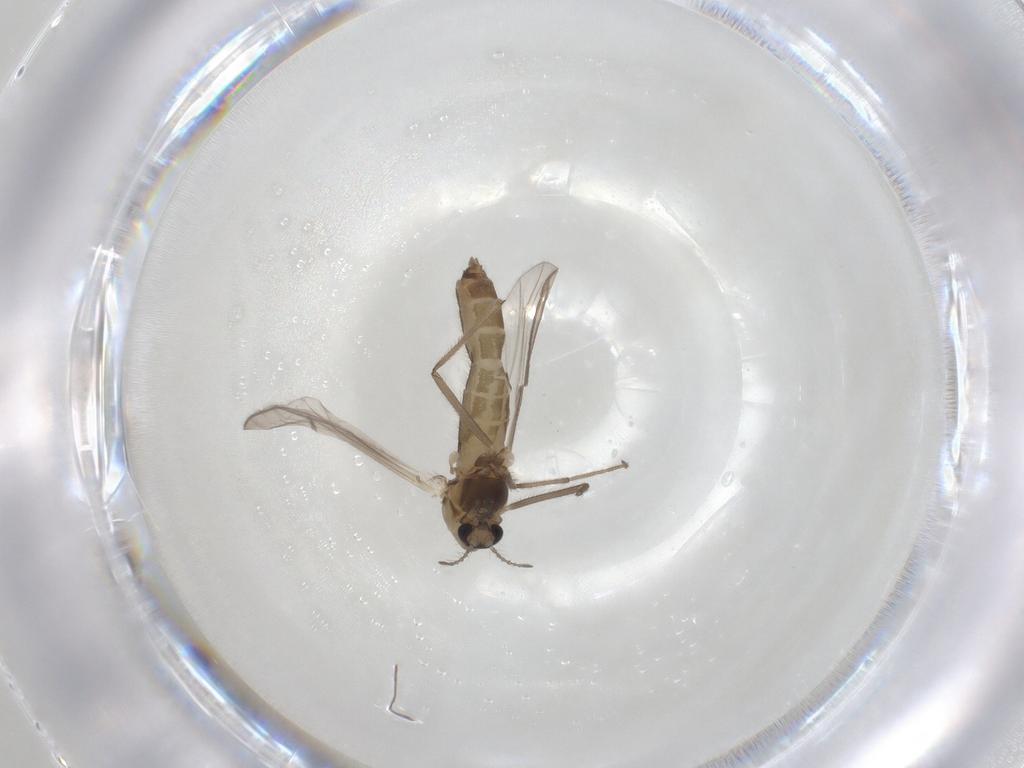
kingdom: Animalia
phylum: Arthropoda
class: Insecta
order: Diptera
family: Chironomidae
